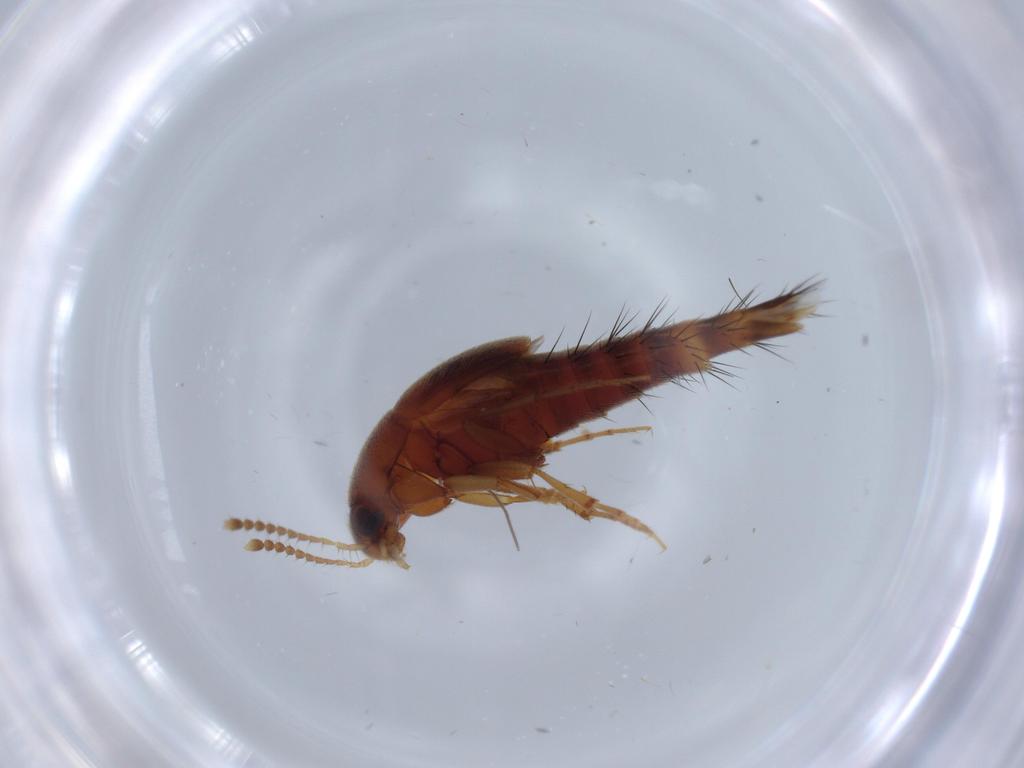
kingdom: Animalia
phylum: Arthropoda
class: Insecta
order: Coleoptera
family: Staphylinidae
